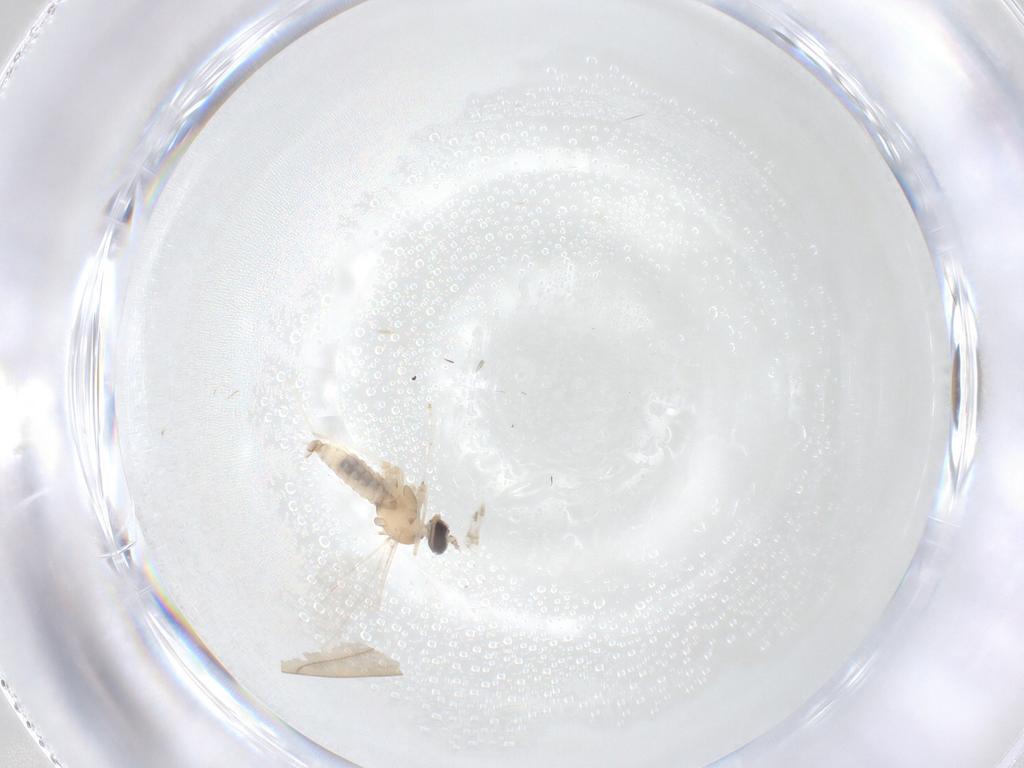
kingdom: Animalia
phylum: Arthropoda
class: Insecta
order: Diptera
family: Cecidomyiidae
